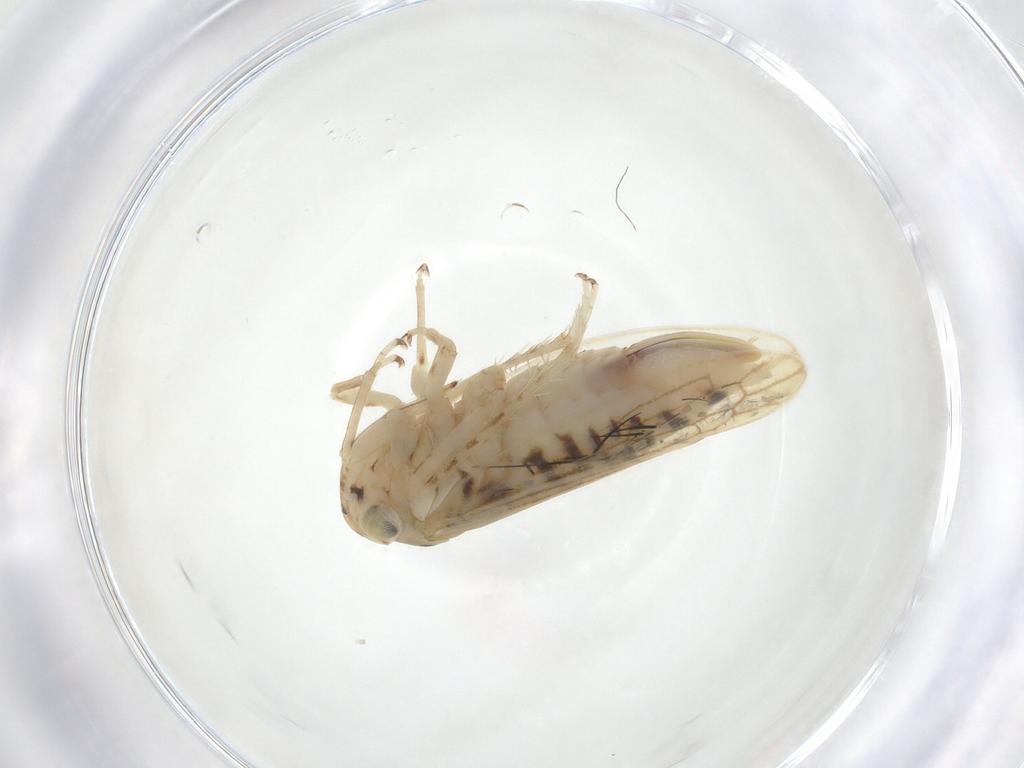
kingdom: Animalia
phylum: Arthropoda
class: Insecta
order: Hemiptera
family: Cicadellidae
